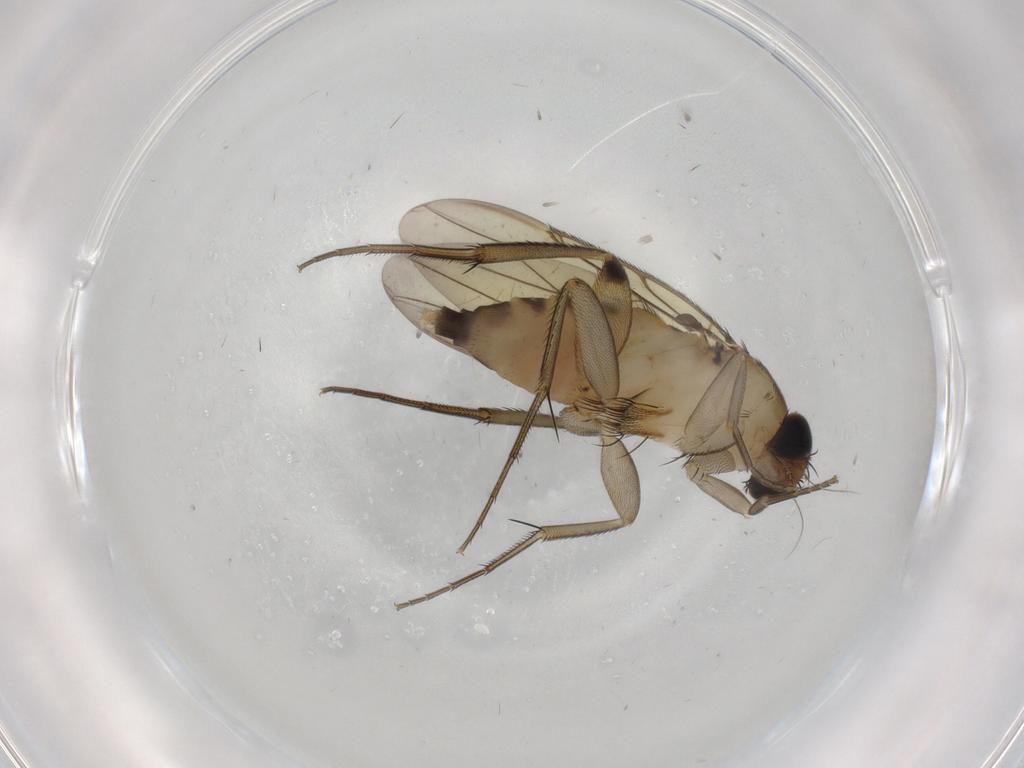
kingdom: Animalia
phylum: Arthropoda
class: Insecta
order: Diptera
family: Phoridae
